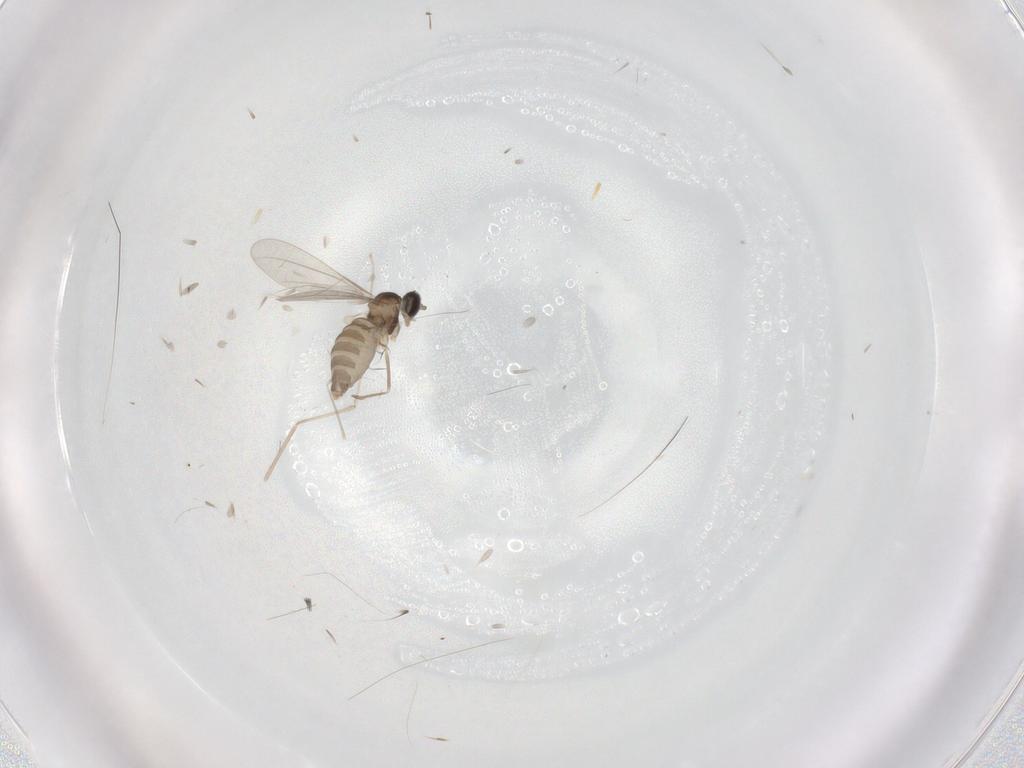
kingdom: Animalia
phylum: Arthropoda
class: Insecta
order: Diptera
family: Cecidomyiidae
